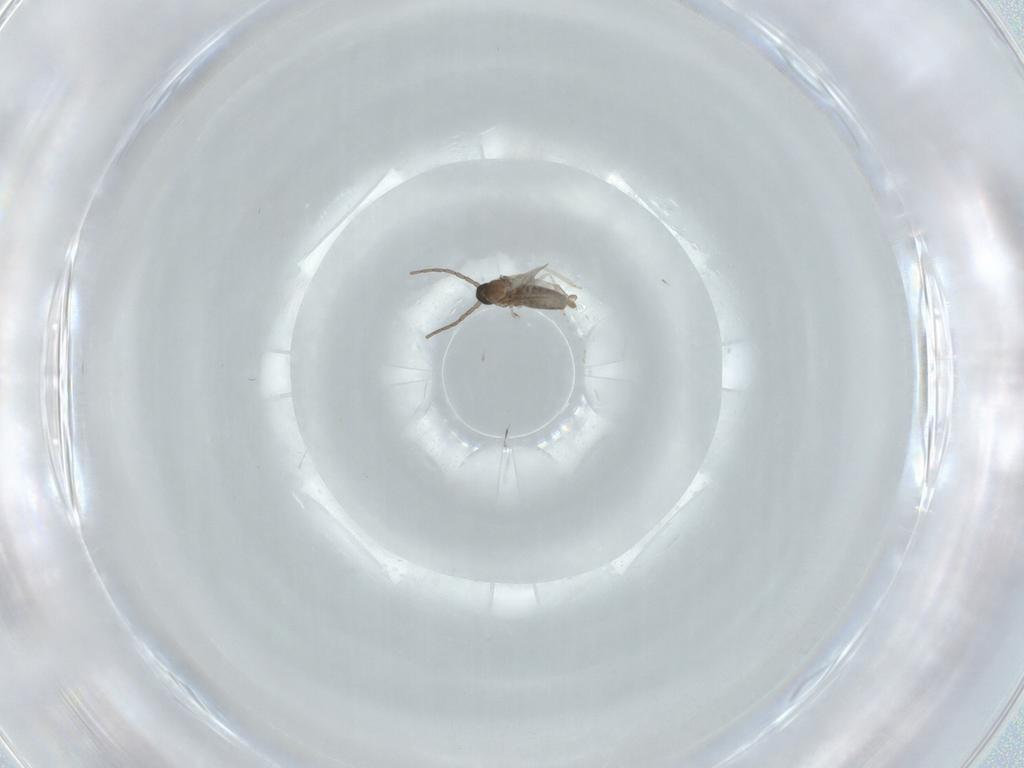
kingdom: Animalia
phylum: Arthropoda
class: Insecta
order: Diptera
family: Cecidomyiidae
